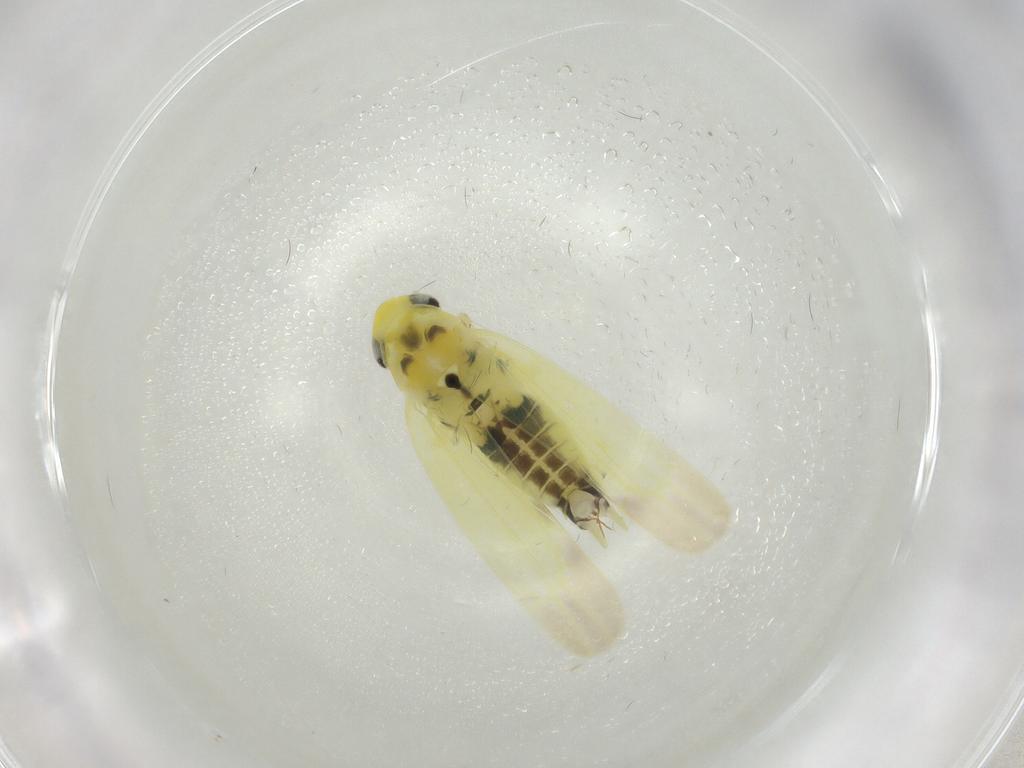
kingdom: Animalia
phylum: Arthropoda
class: Insecta
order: Hemiptera
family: Cicadellidae
